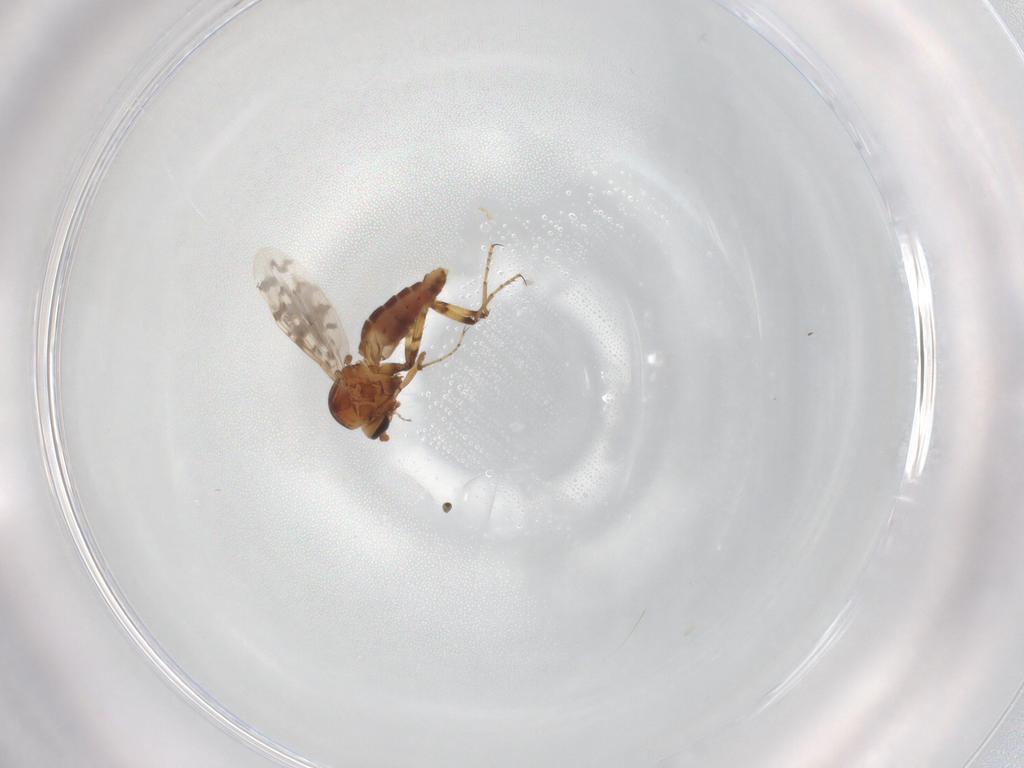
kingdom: Animalia
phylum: Arthropoda
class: Insecta
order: Diptera
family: Ceratopogonidae
